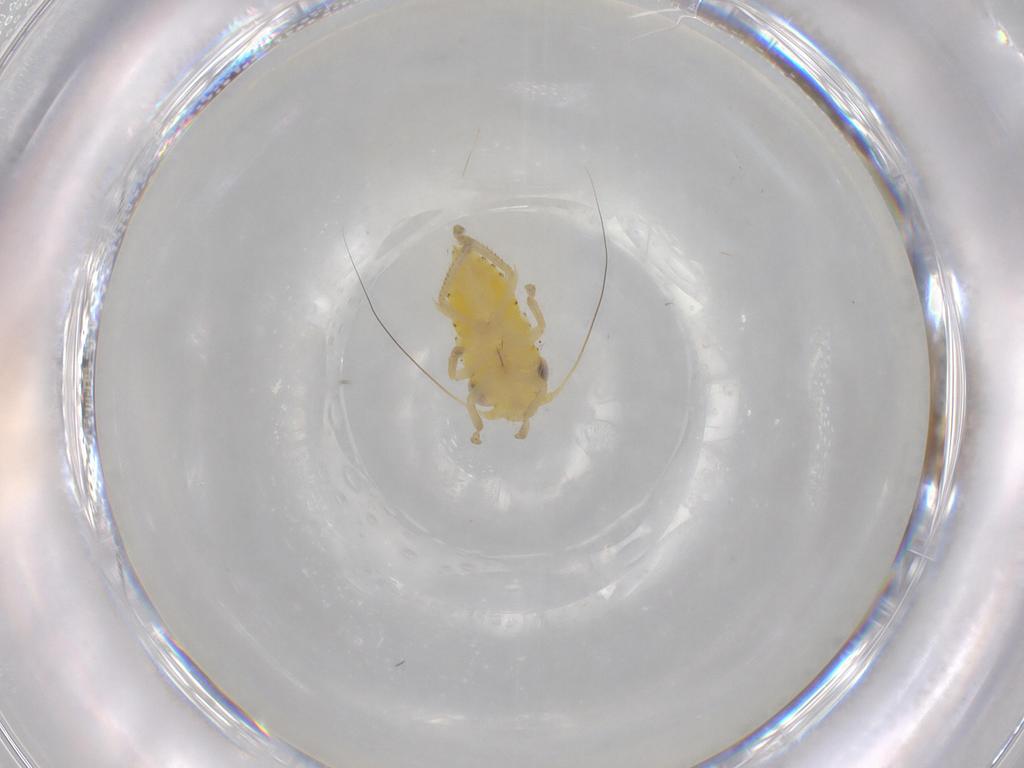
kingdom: Animalia
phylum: Arthropoda
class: Insecta
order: Hemiptera
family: Cicadellidae
